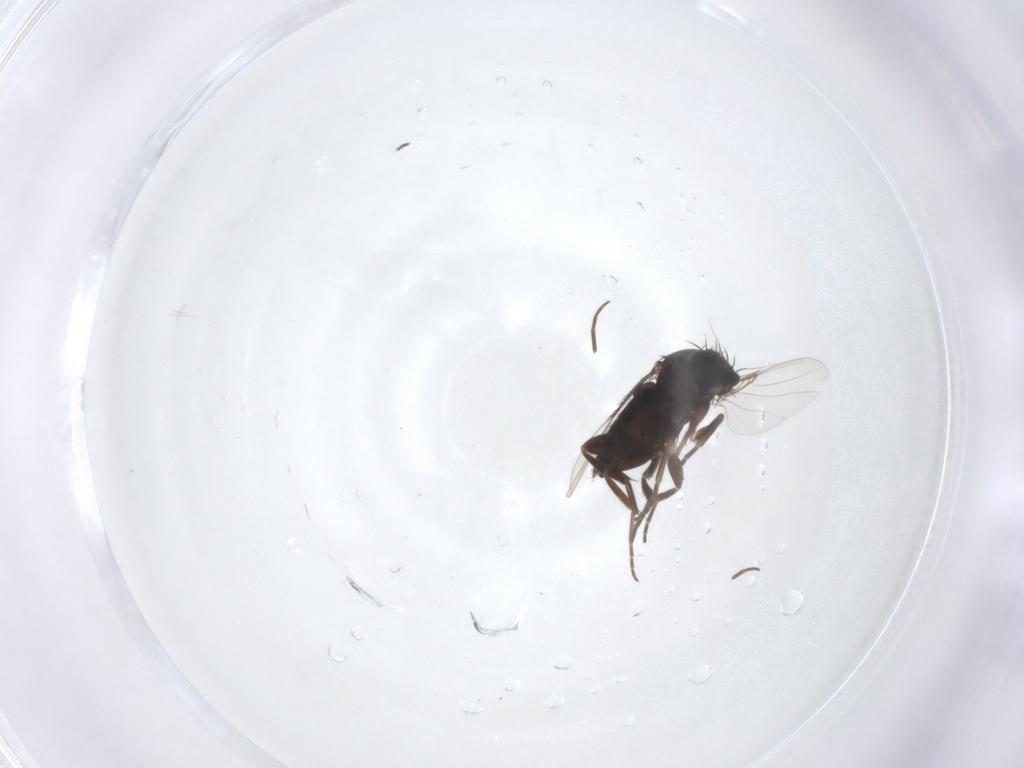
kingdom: Animalia
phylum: Arthropoda
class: Insecta
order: Diptera
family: Phoridae
